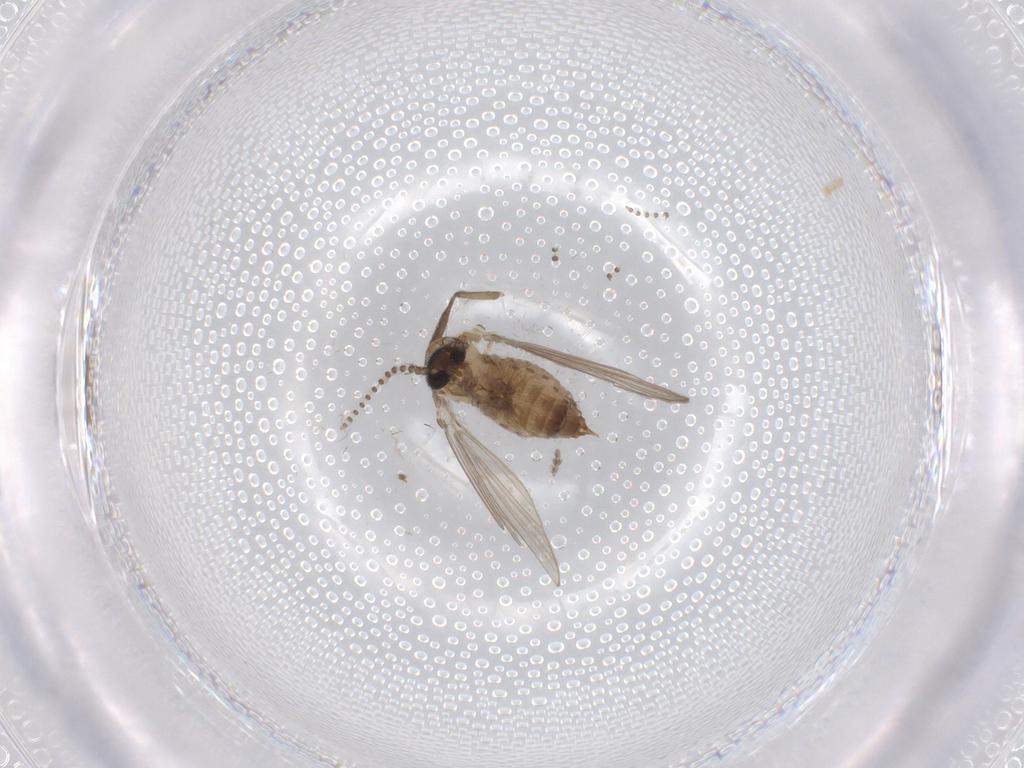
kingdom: Animalia
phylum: Arthropoda
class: Insecta
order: Diptera
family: Psychodidae
